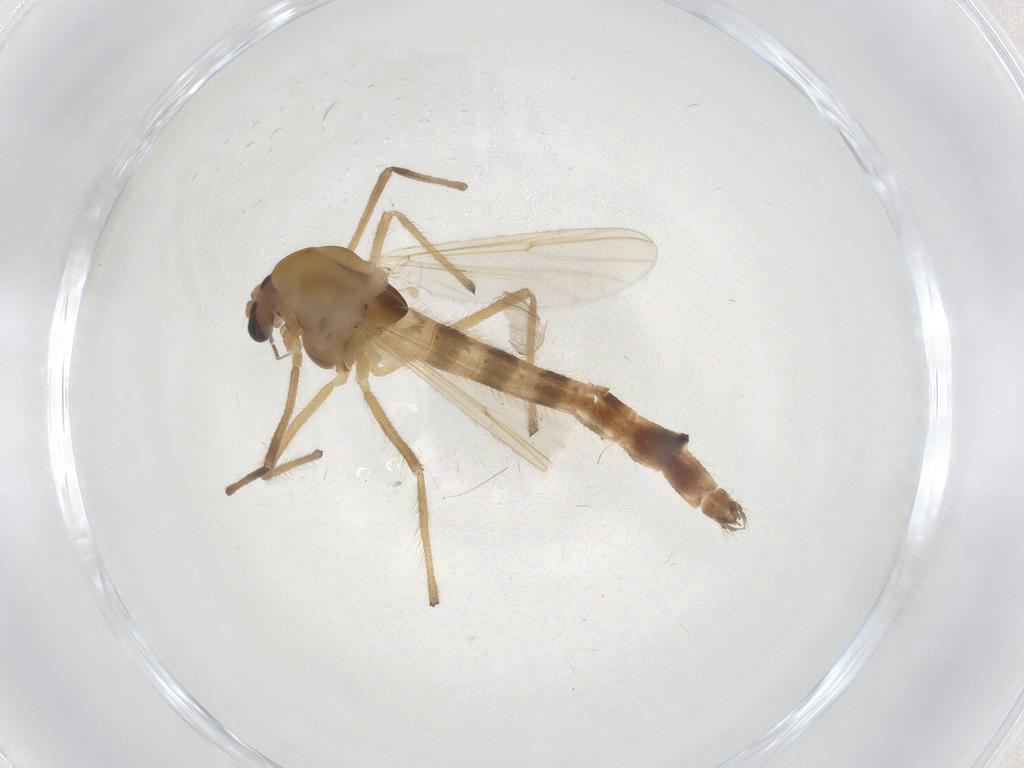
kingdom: Animalia
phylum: Arthropoda
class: Insecta
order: Diptera
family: Chironomidae
